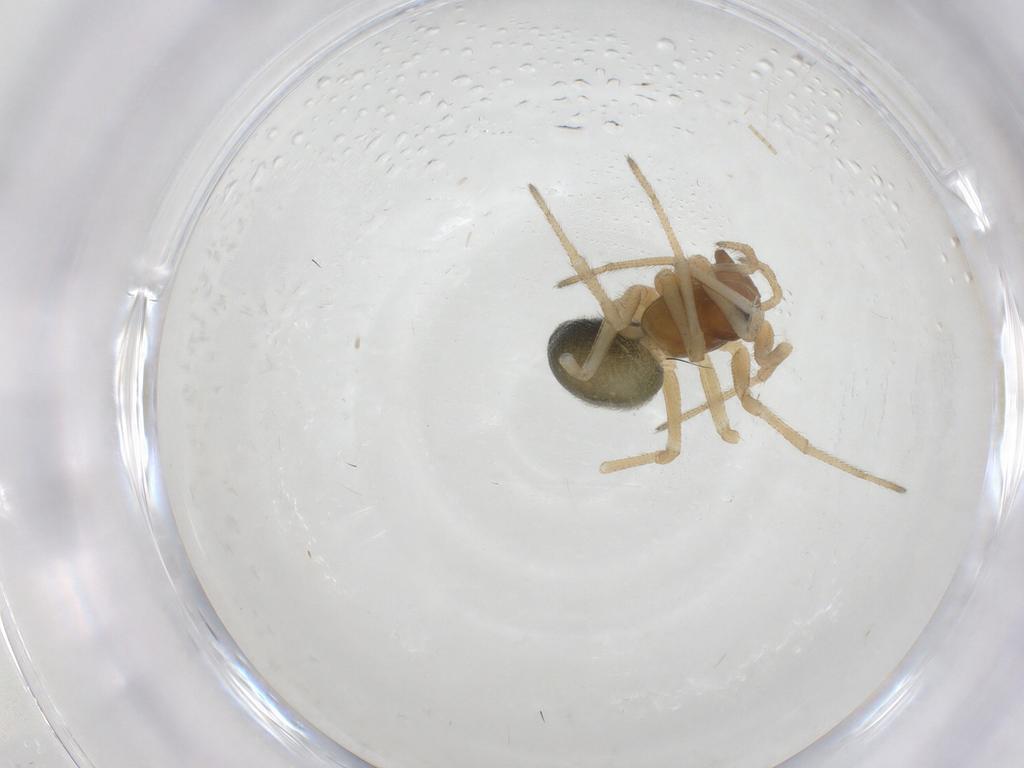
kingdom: Animalia
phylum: Arthropoda
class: Arachnida
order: Araneae
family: Linyphiidae
